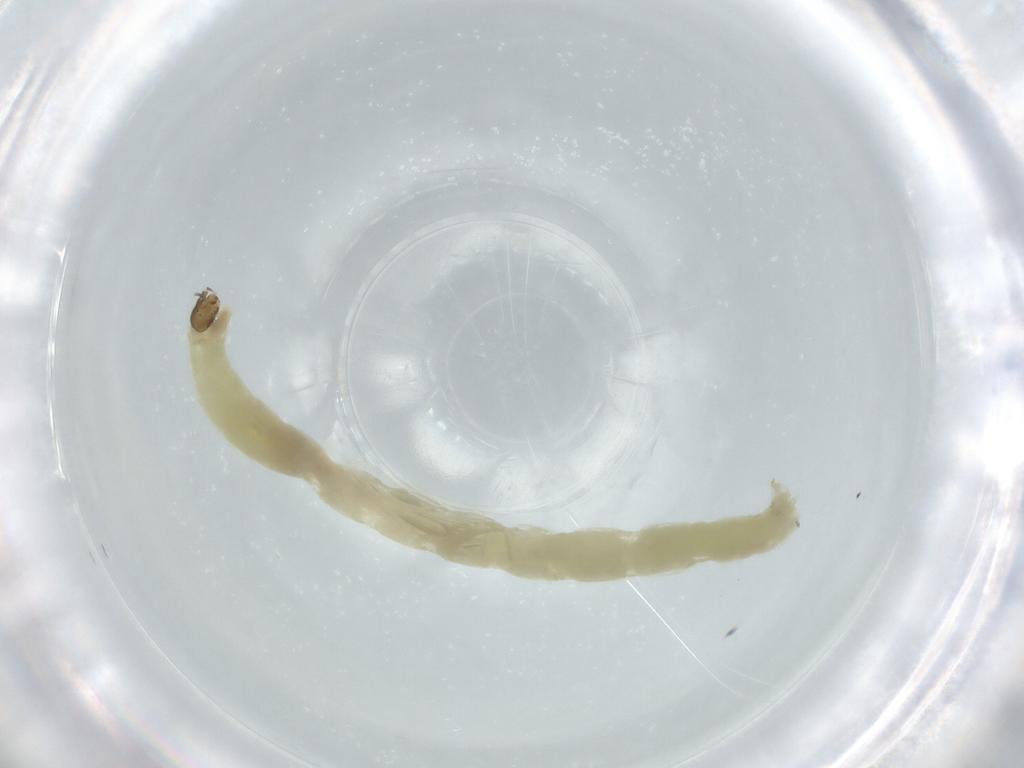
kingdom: Animalia
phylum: Arthropoda
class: Insecta
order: Diptera
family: Chironomidae
